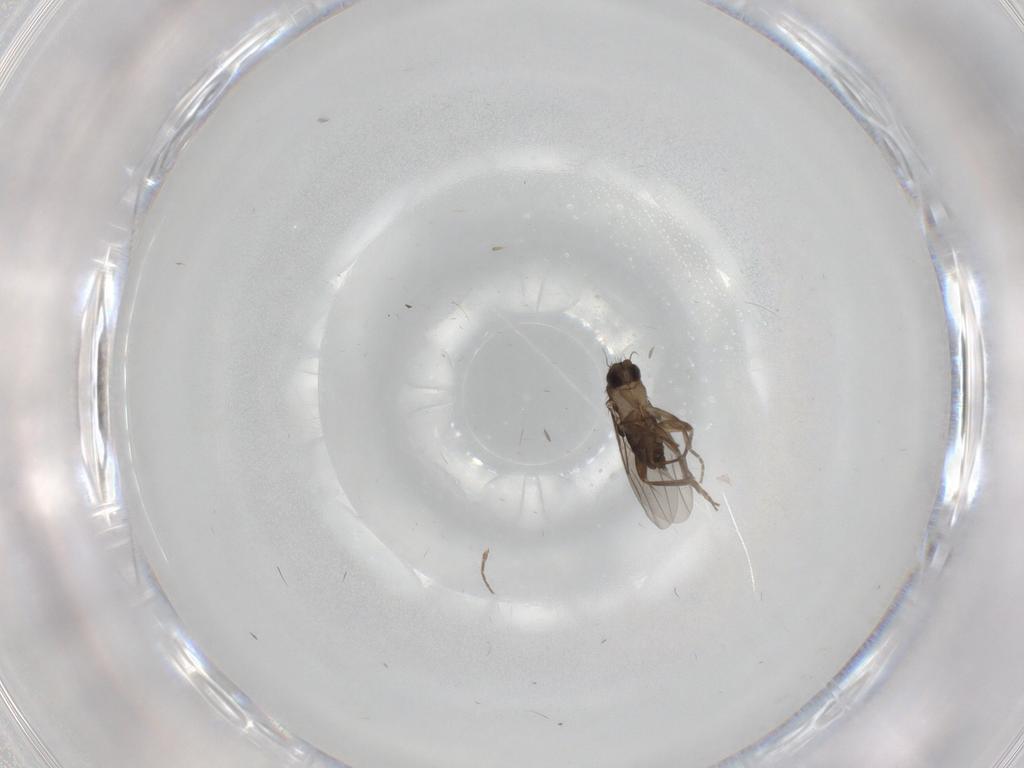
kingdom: Animalia
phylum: Arthropoda
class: Insecta
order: Diptera
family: Phoridae
